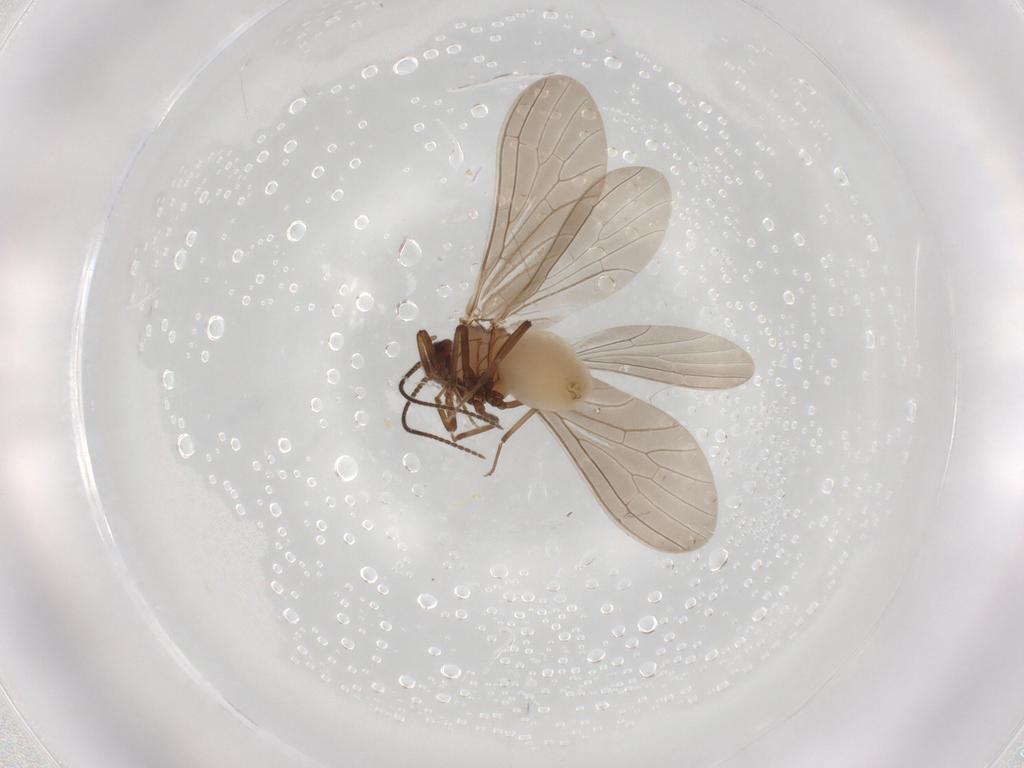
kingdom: Animalia
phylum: Arthropoda
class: Insecta
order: Neuroptera
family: Coniopterygidae
